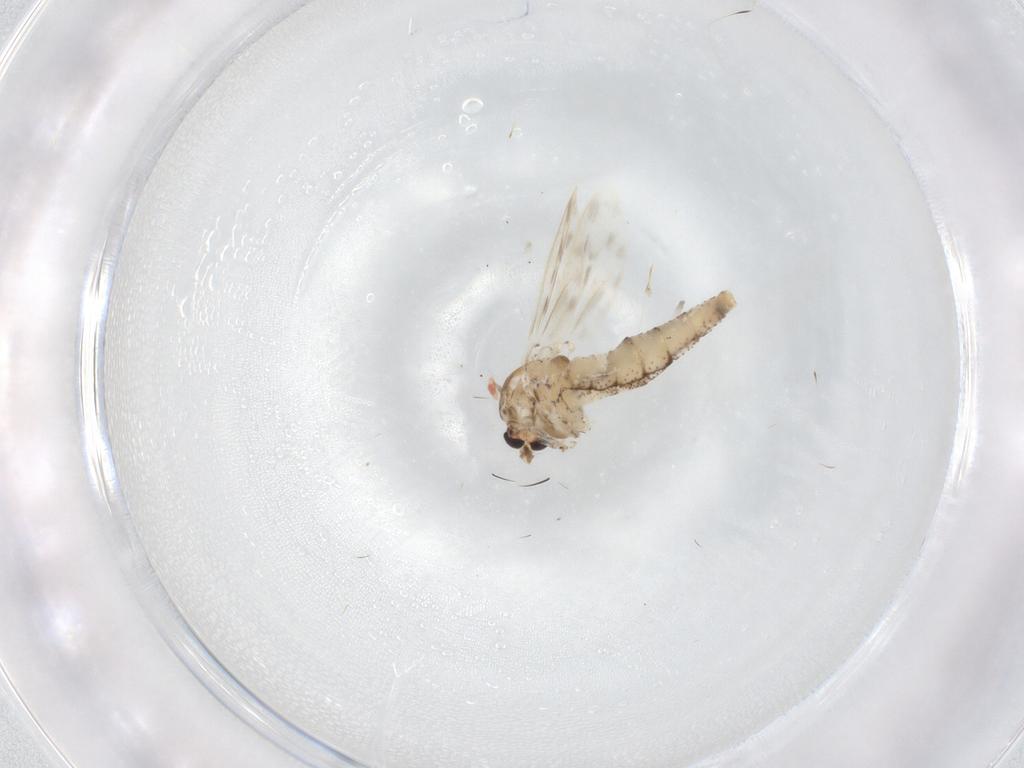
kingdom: Animalia
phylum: Arthropoda
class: Insecta
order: Diptera
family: Chaoboridae
